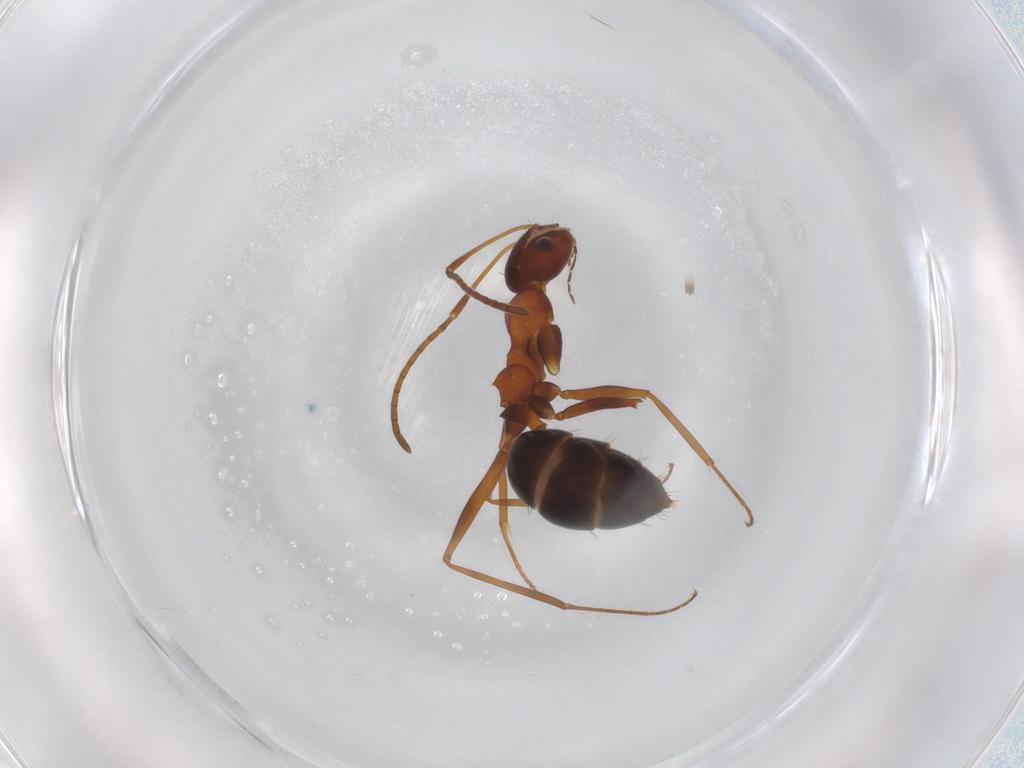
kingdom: Animalia
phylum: Arthropoda
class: Insecta
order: Hymenoptera
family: Formicidae
